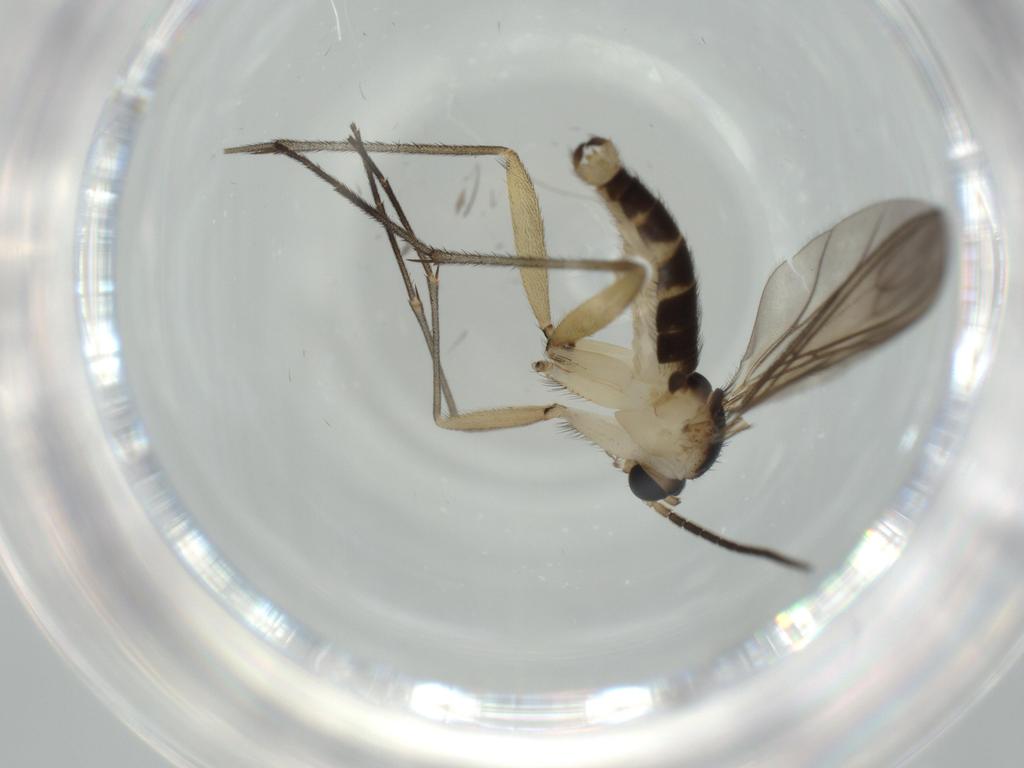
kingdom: Animalia
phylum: Arthropoda
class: Insecta
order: Diptera
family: Sciaridae
